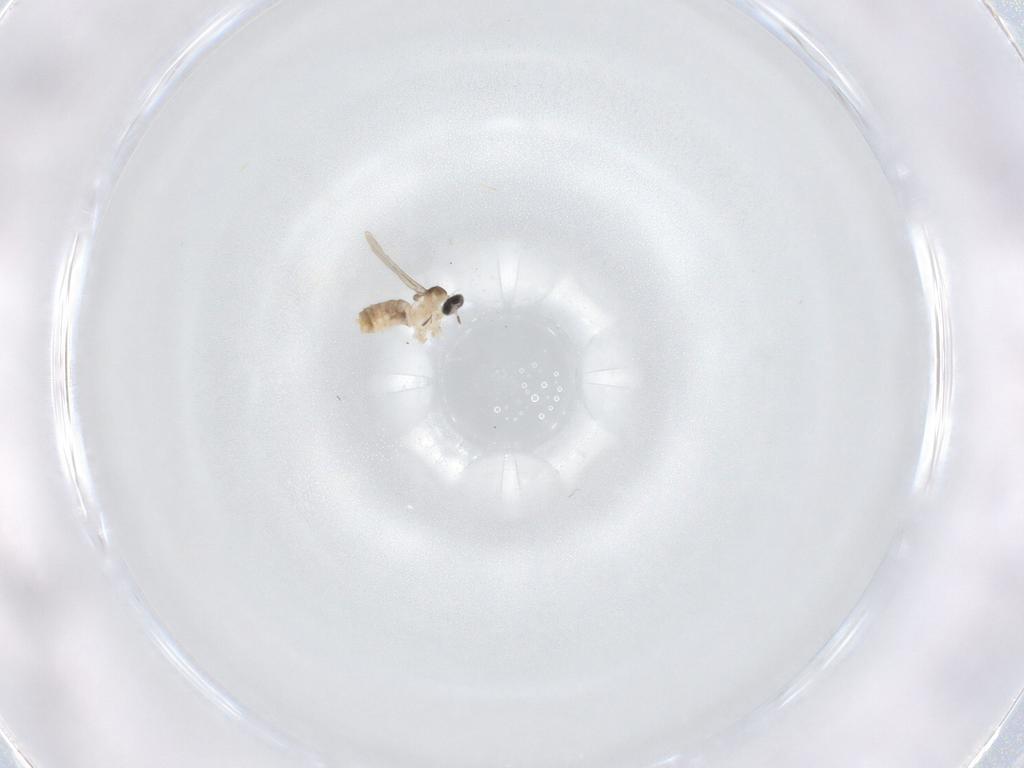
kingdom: Animalia
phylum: Arthropoda
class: Insecta
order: Diptera
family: Cecidomyiidae
